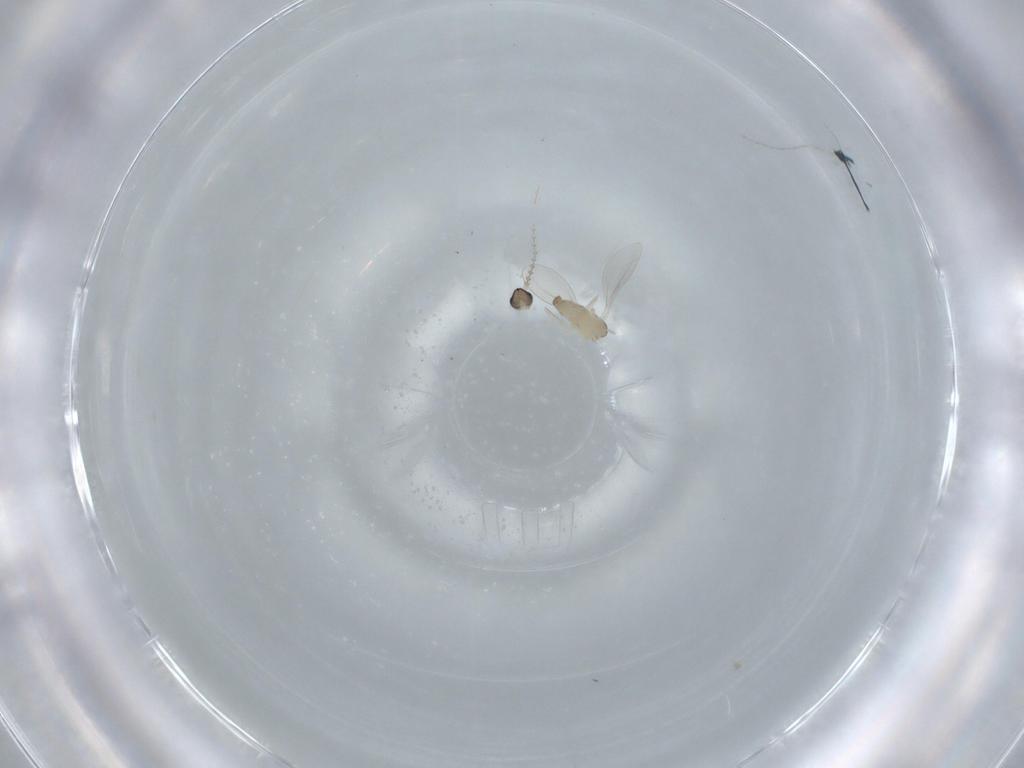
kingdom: Animalia
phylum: Arthropoda
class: Insecta
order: Diptera
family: Cecidomyiidae
